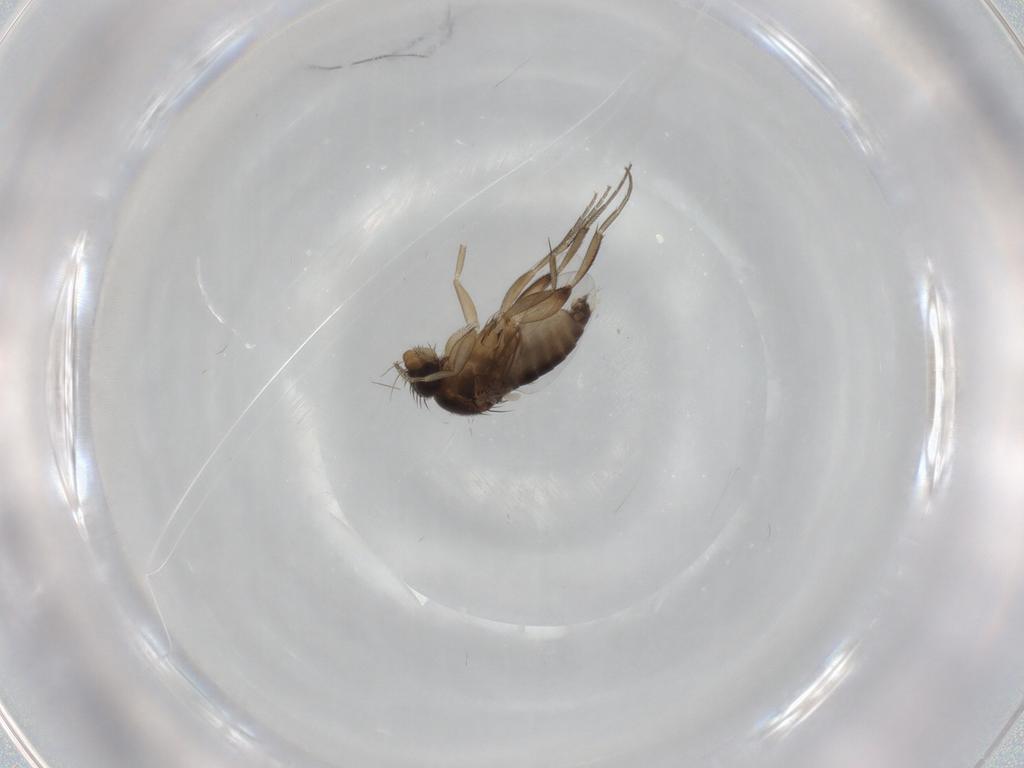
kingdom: Animalia
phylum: Arthropoda
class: Insecta
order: Diptera
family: Phoridae
